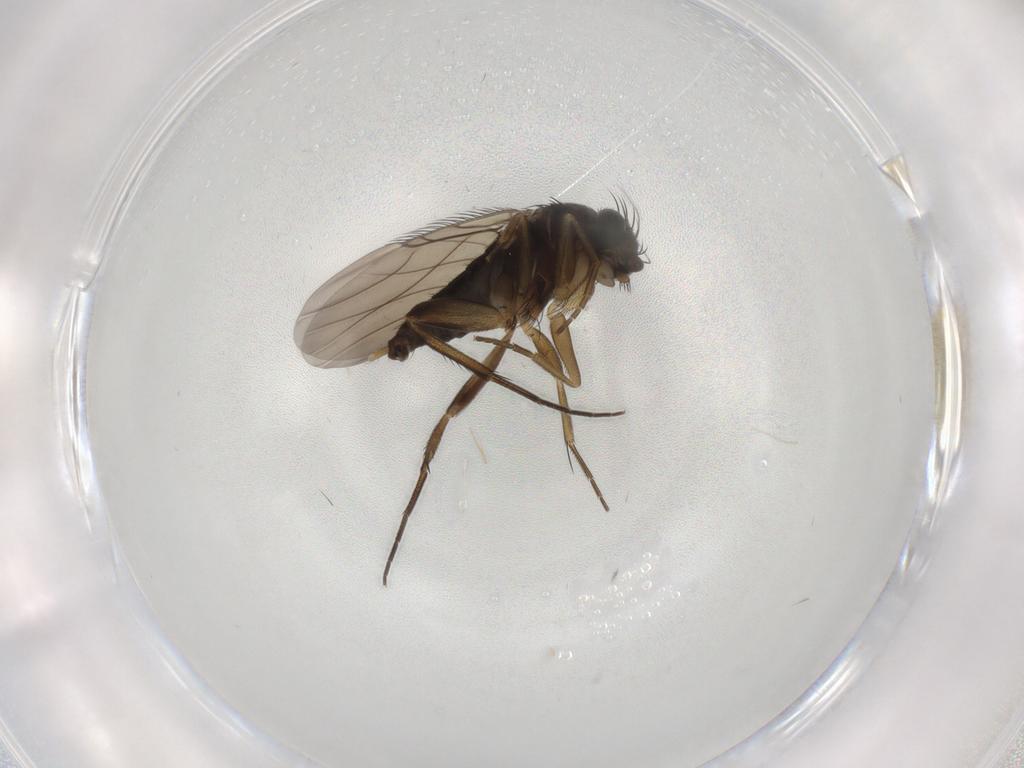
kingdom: Animalia
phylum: Arthropoda
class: Insecta
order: Diptera
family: Phoridae
